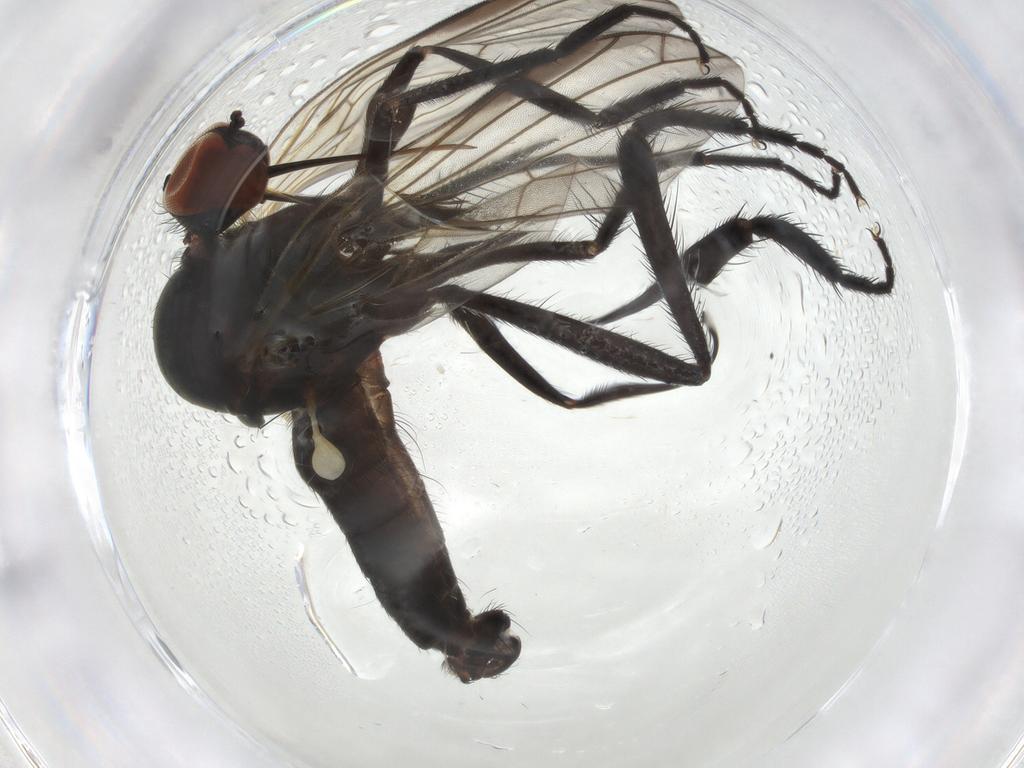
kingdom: Animalia
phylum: Arthropoda
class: Insecta
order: Diptera
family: Empididae
